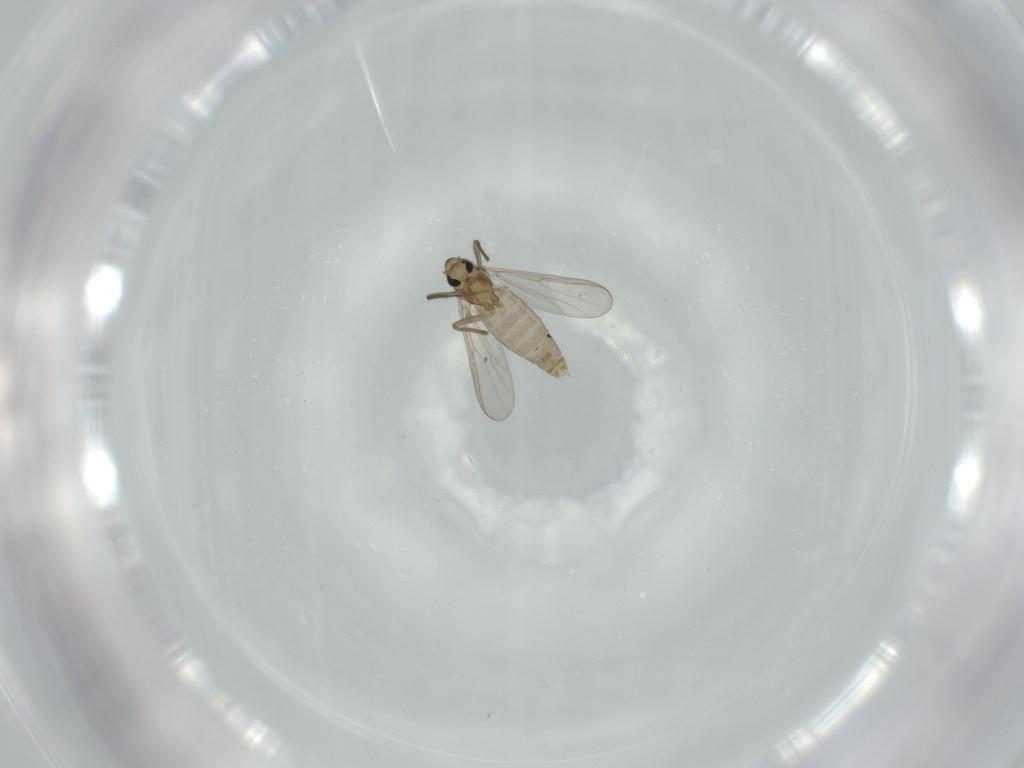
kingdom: Animalia
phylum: Arthropoda
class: Insecta
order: Diptera
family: Chironomidae
